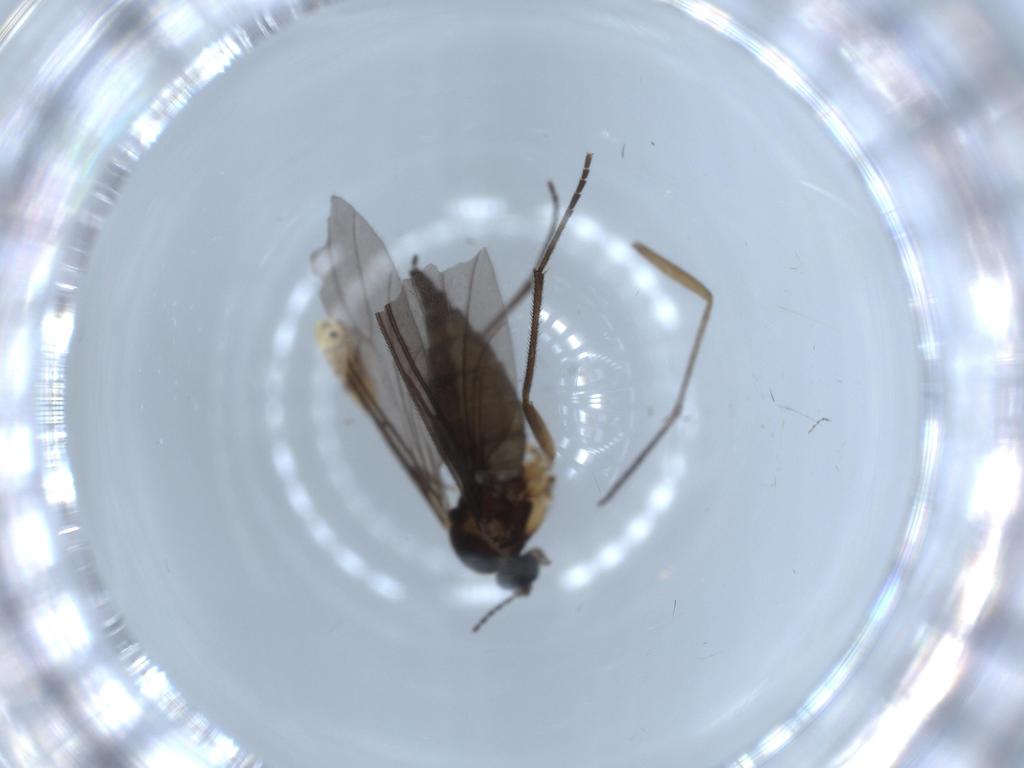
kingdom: Animalia
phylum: Arthropoda
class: Insecta
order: Diptera
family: Sciaridae
